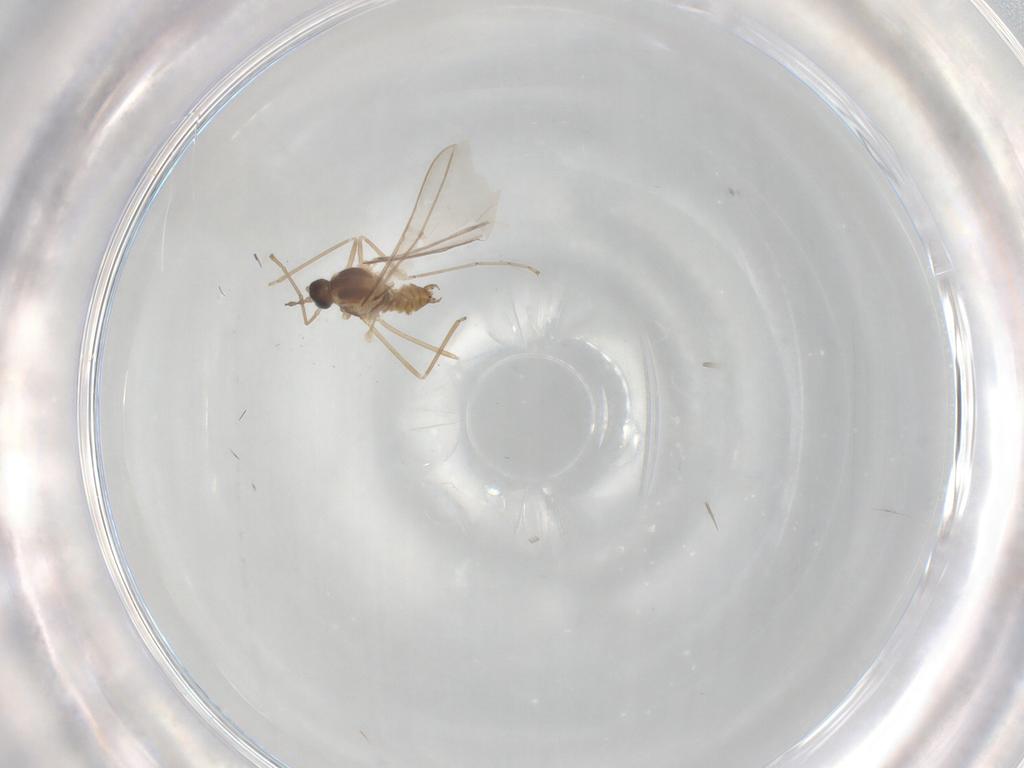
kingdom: Animalia
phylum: Arthropoda
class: Insecta
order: Diptera
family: Cecidomyiidae
